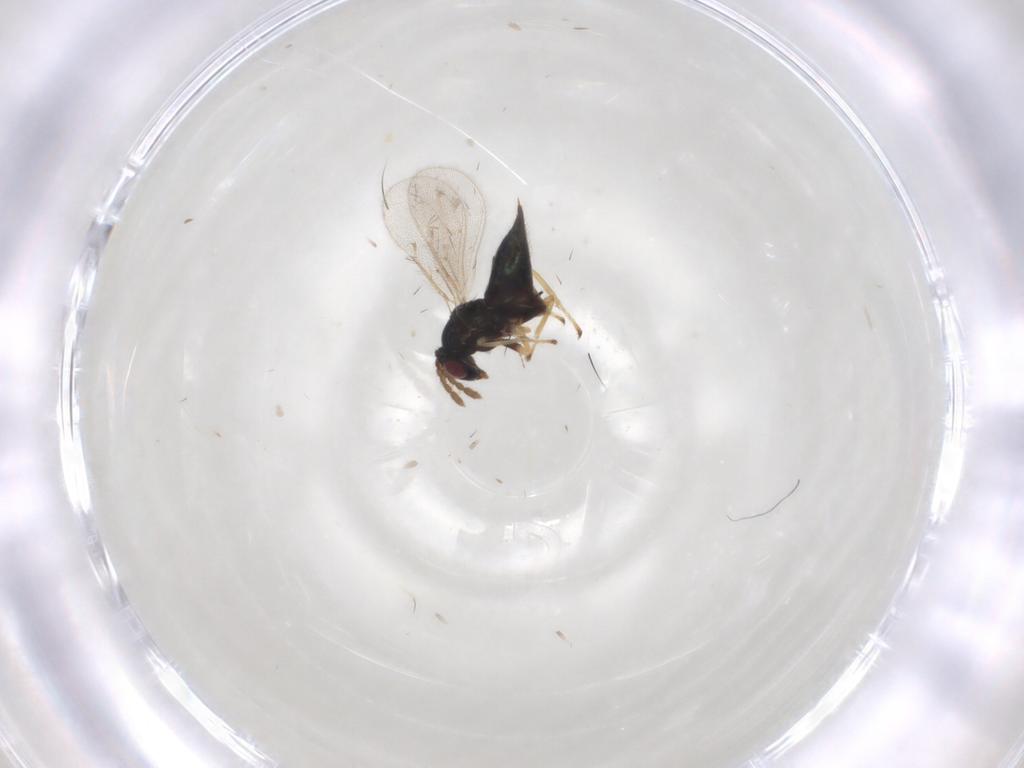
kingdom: Animalia
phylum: Arthropoda
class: Insecta
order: Hymenoptera
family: Eulophidae
